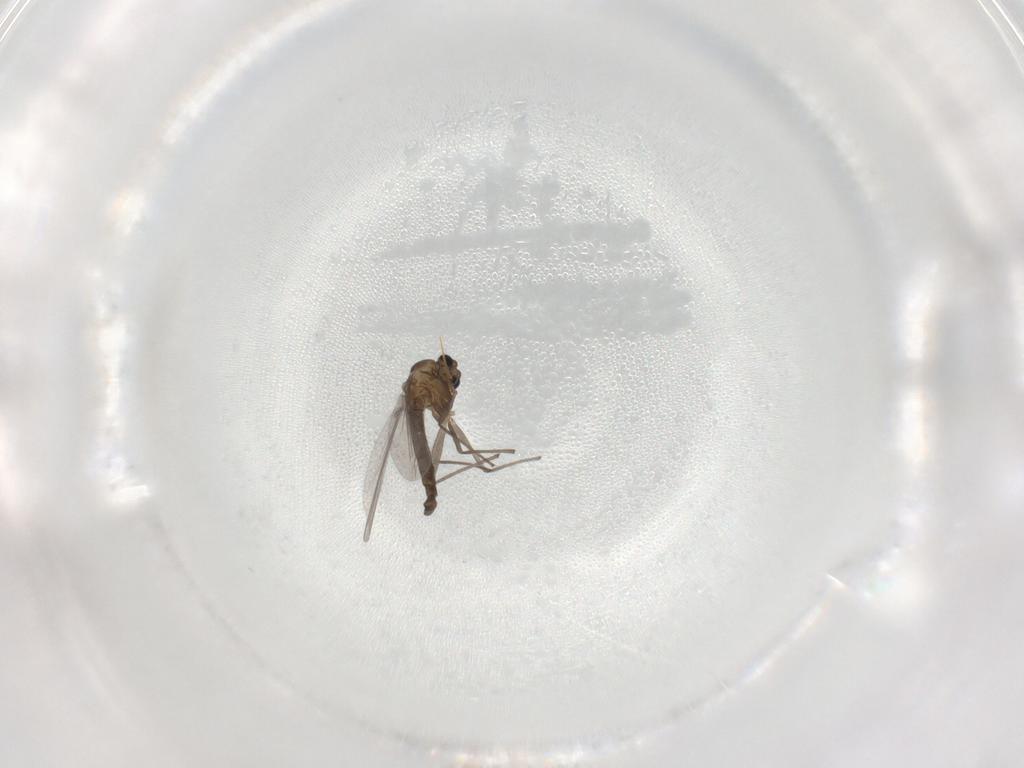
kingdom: Animalia
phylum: Arthropoda
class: Insecta
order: Diptera
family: Chironomidae
